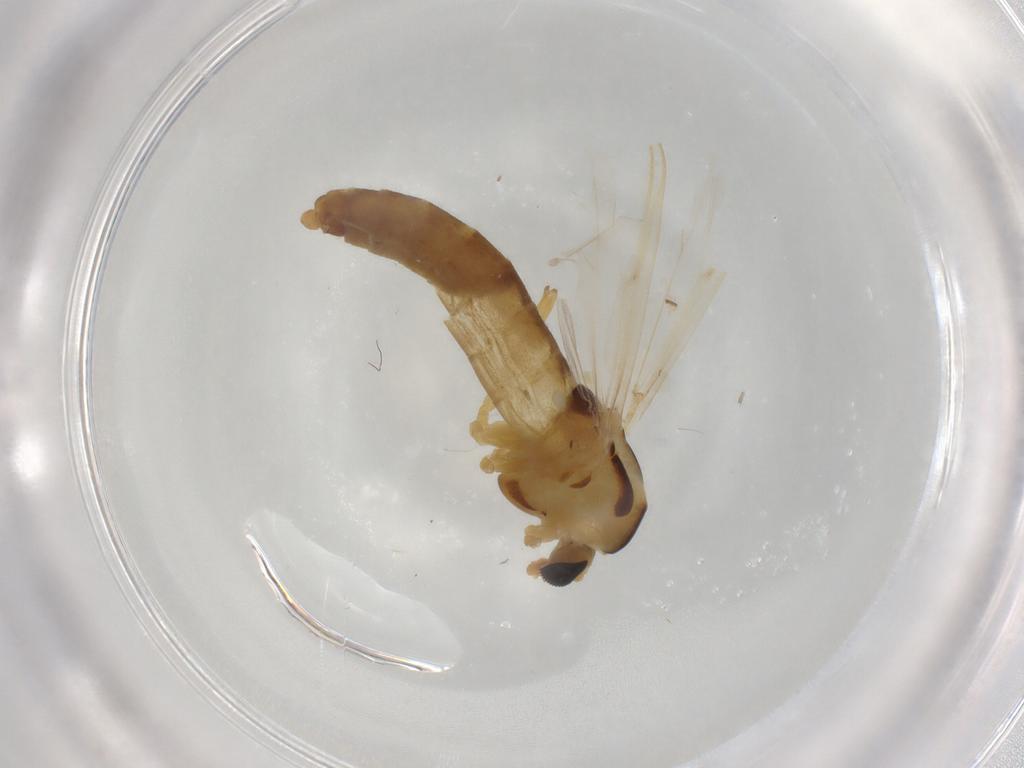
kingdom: Animalia
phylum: Arthropoda
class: Insecta
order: Diptera
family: Chironomidae
